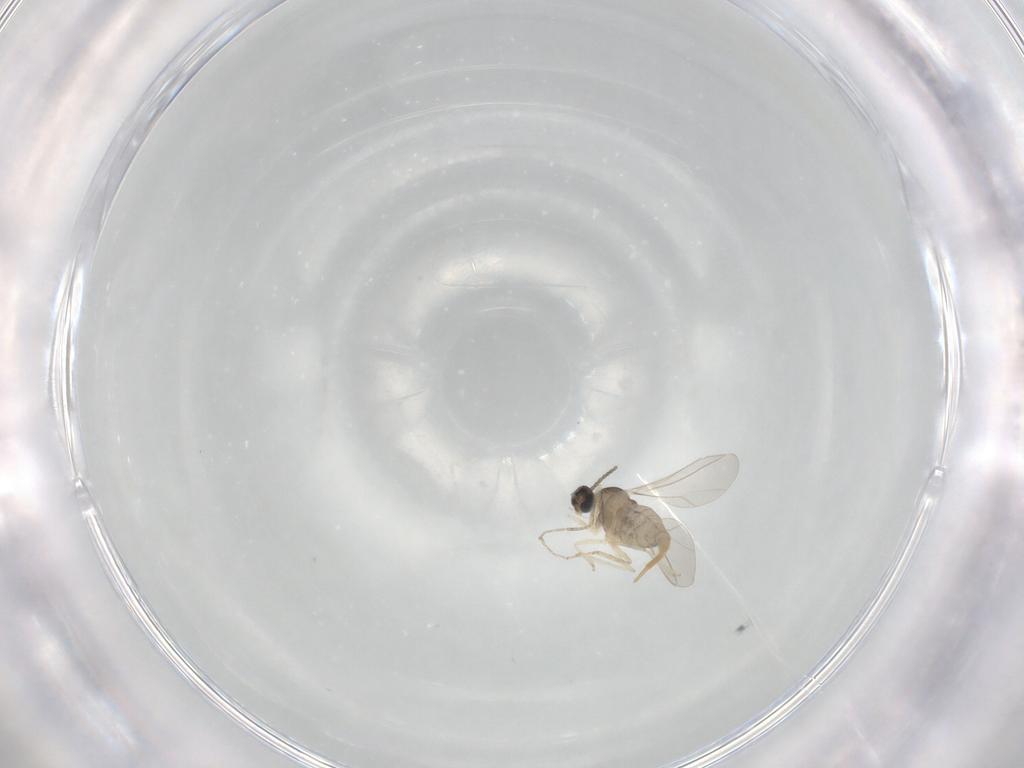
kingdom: Animalia
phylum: Arthropoda
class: Insecta
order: Diptera
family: Cecidomyiidae
